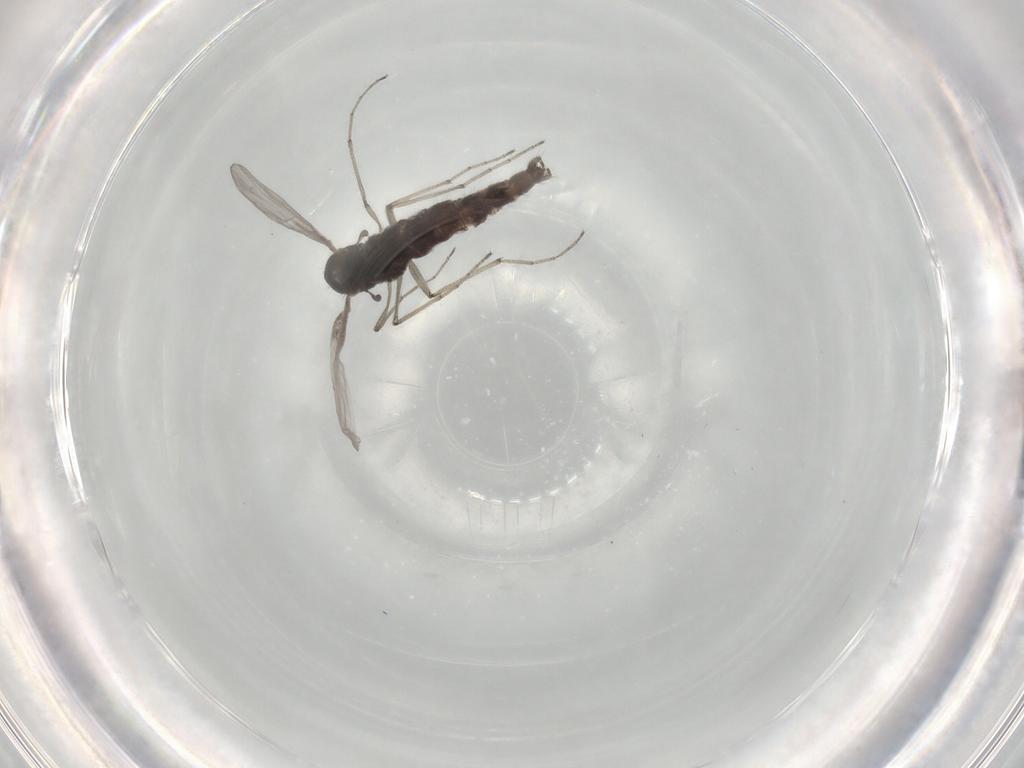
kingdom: Animalia
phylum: Arthropoda
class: Insecta
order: Diptera
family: Chironomidae
